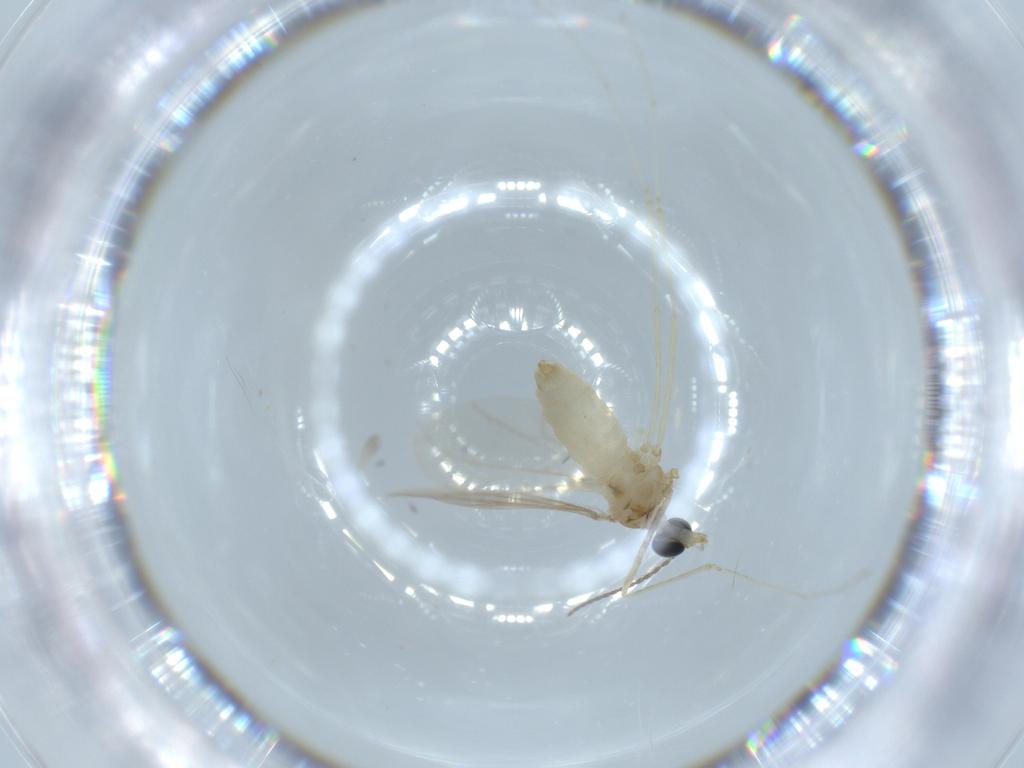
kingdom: Animalia
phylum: Arthropoda
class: Insecta
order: Diptera
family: Cecidomyiidae
